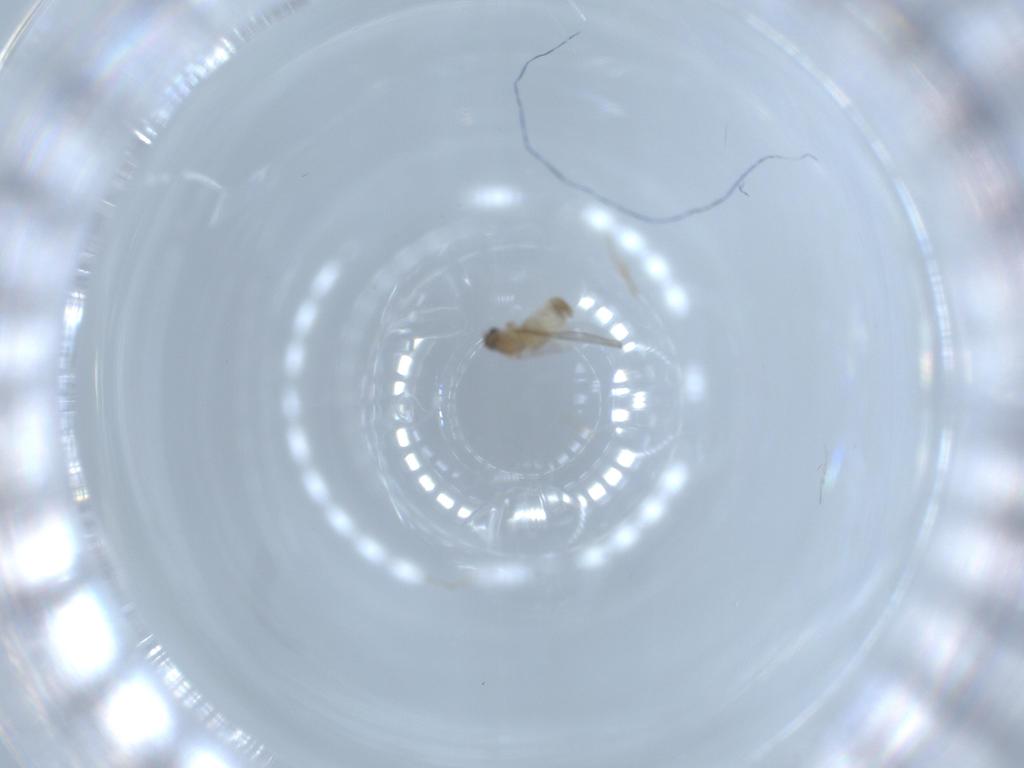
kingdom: Animalia
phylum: Arthropoda
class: Insecta
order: Diptera
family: Cecidomyiidae
